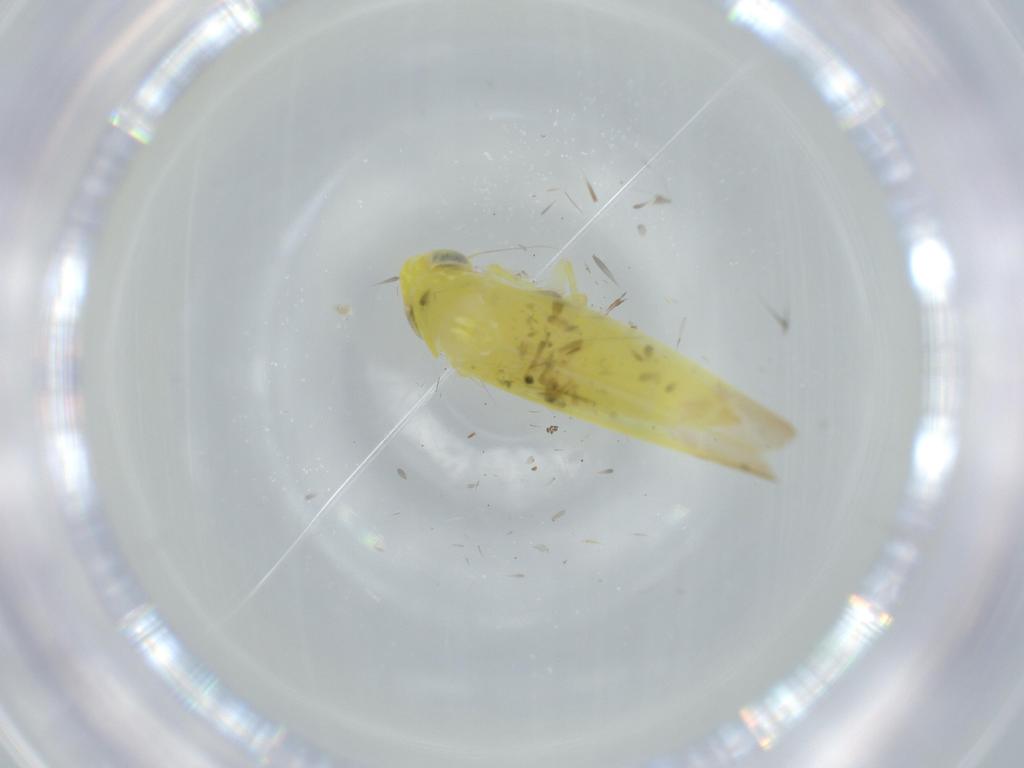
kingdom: Animalia
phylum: Arthropoda
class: Insecta
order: Hemiptera
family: Cicadellidae
